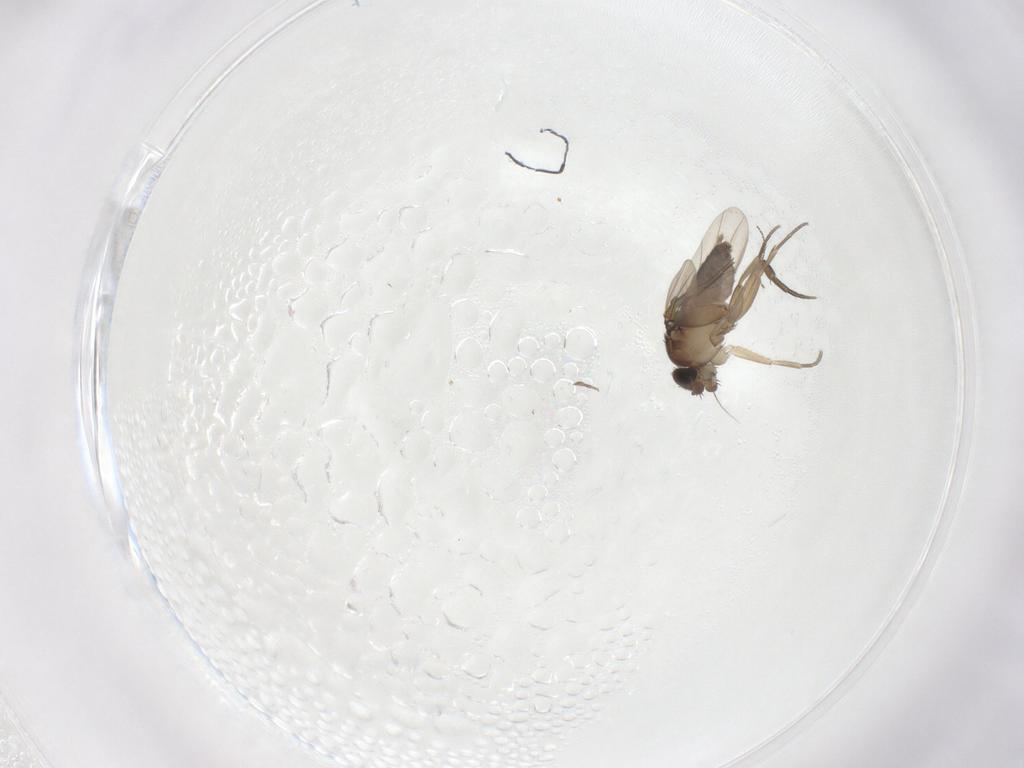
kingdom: Animalia
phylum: Arthropoda
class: Insecta
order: Diptera
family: Phoridae
